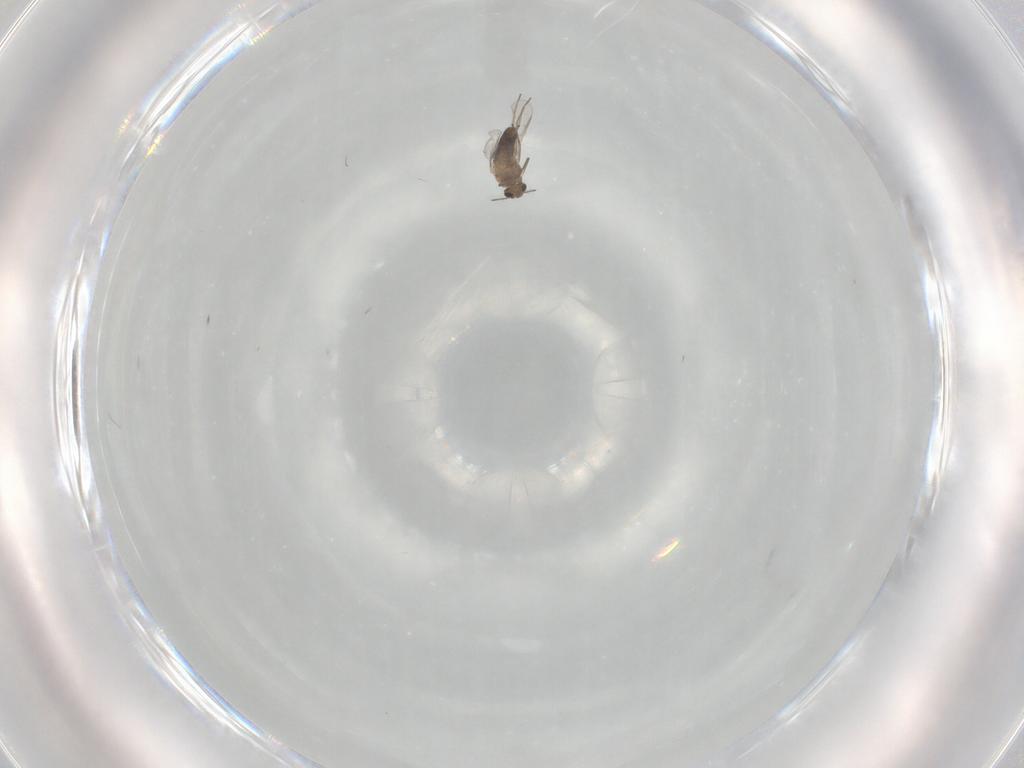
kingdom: Animalia
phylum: Arthropoda
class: Insecta
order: Diptera
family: Chironomidae
